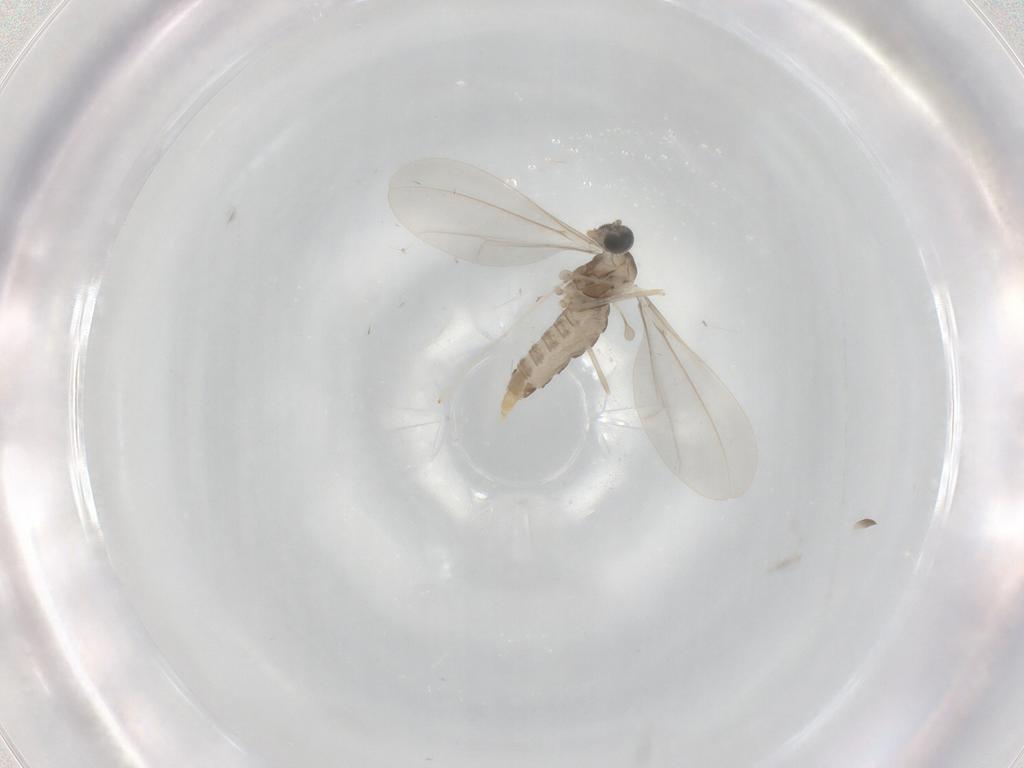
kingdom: Animalia
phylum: Arthropoda
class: Insecta
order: Diptera
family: Cecidomyiidae
